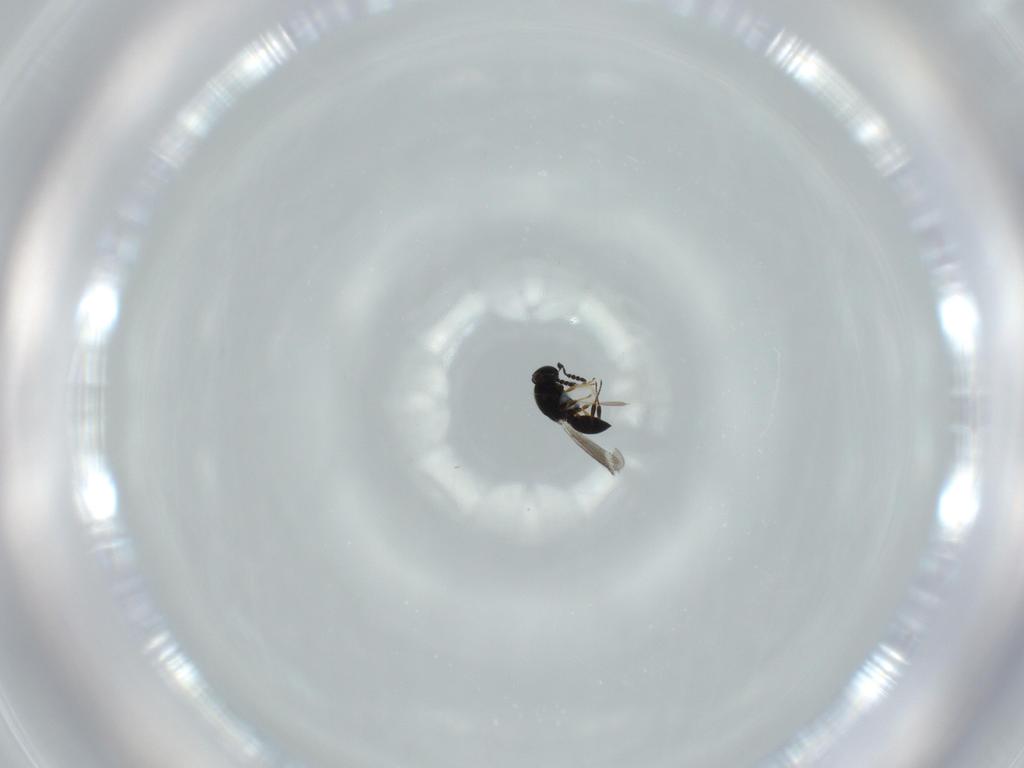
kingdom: Animalia
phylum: Arthropoda
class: Insecta
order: Hymenoptera
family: Platygastridae
